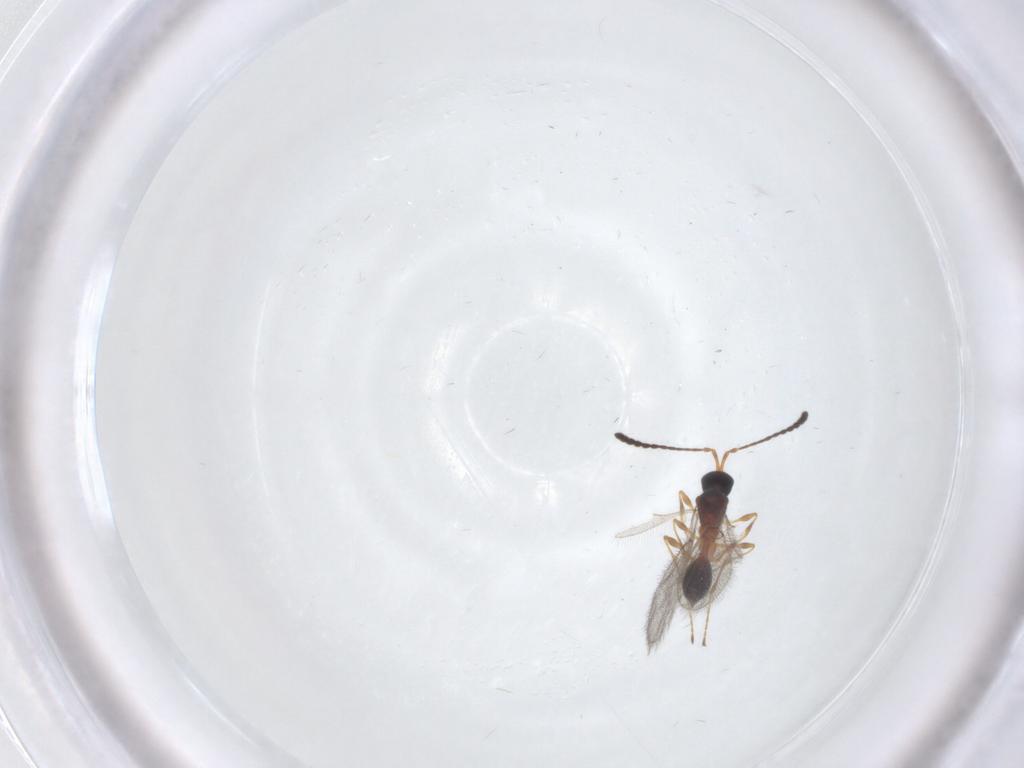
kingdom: Animalia
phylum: Arthropoda
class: Insecta
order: Hymenoptera
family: Diapriidae
